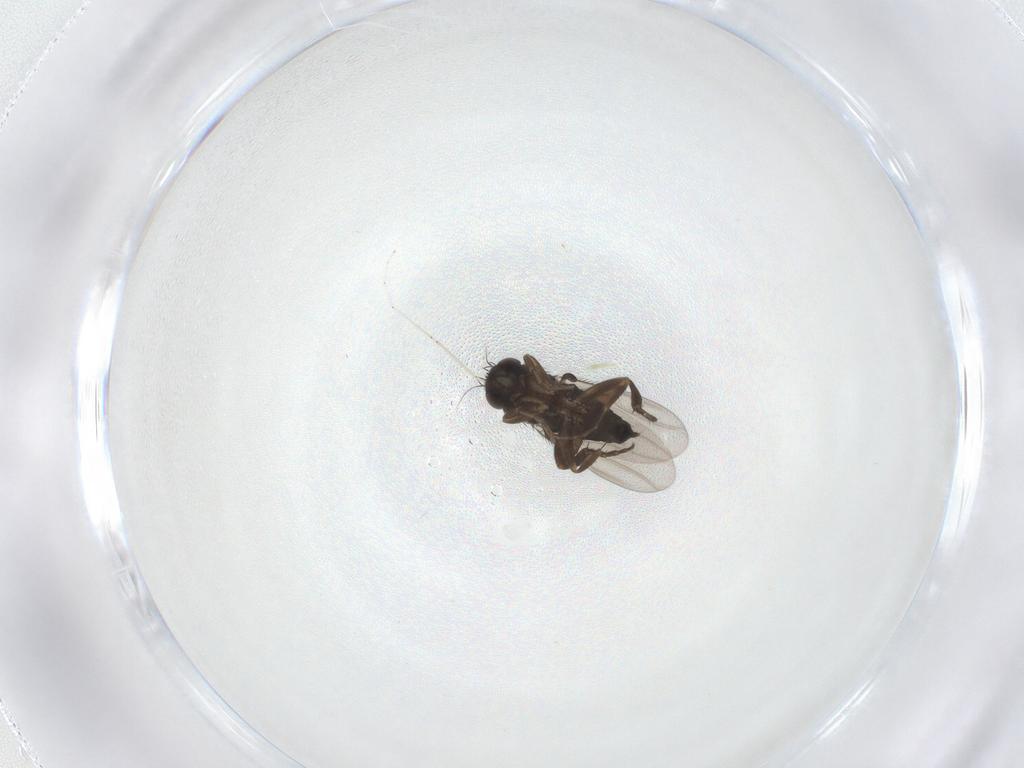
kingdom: Animalia
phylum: Arthropoda
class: Insecta
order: Diptera
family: Phoridae
